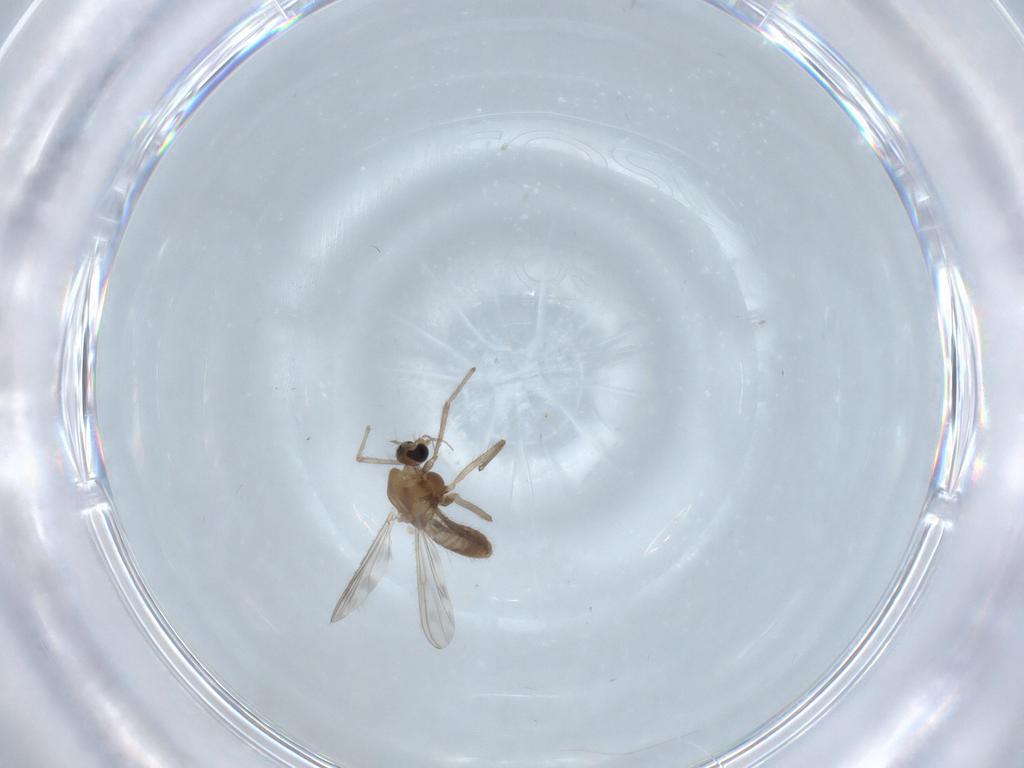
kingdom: Animalia
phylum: Arthropoda
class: Insecta
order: Diptera
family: Chironomidae
